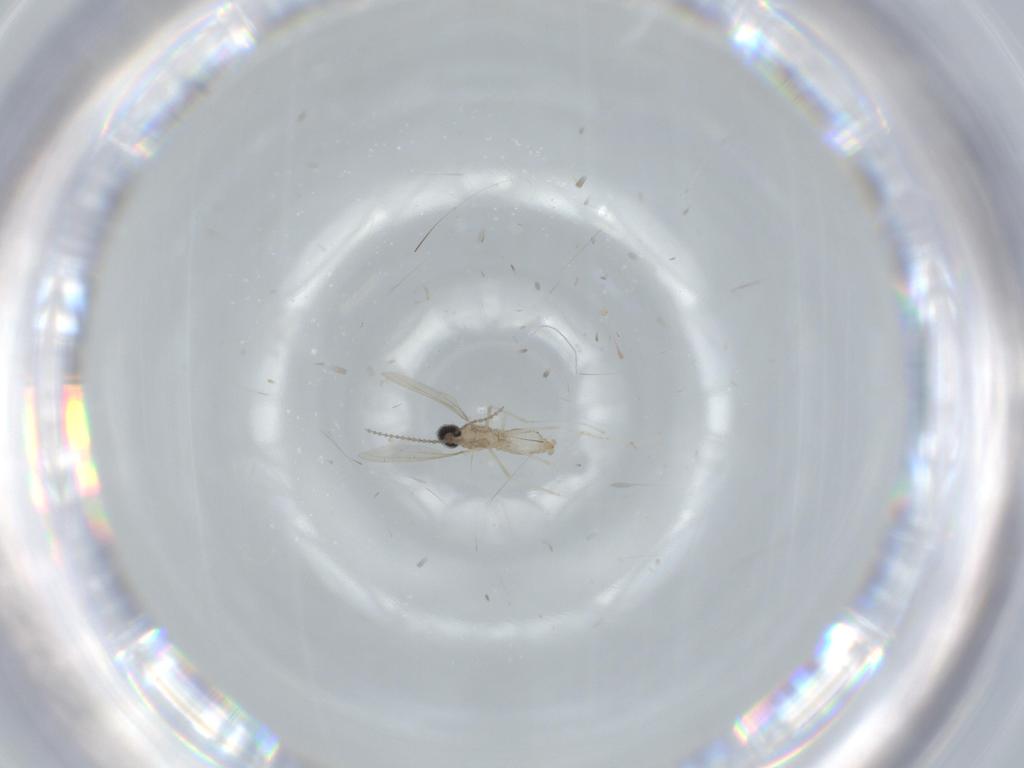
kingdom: Animalia
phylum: Arthropoda
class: Insecta
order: Diptera
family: Cecidomyiidae
